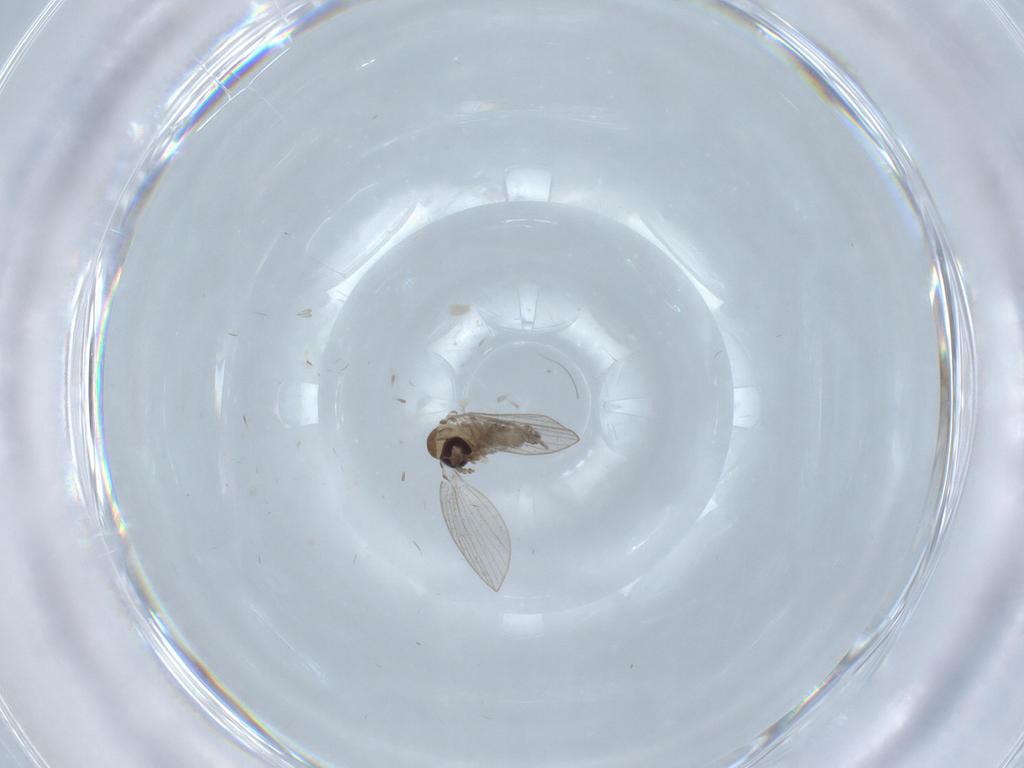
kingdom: Animalia
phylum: Arthropoda
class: Insecta
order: Diptera
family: Psychodidae
